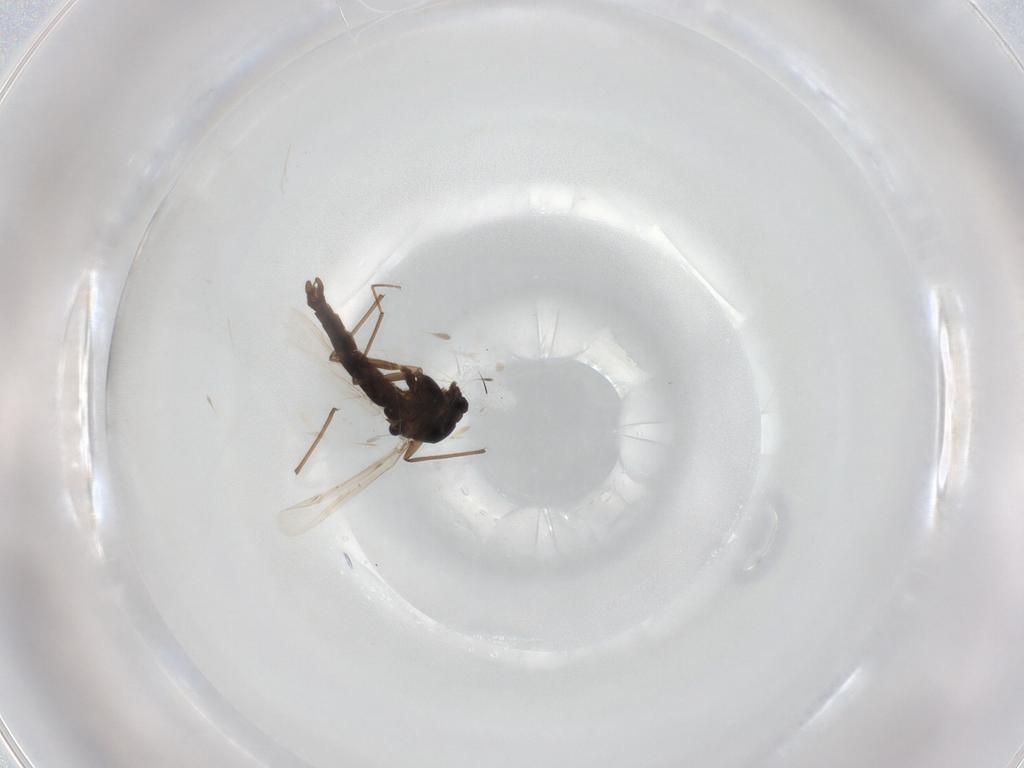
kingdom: Animalia
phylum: Arthropoda
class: Insecta
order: Diptera
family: Chironomidae
